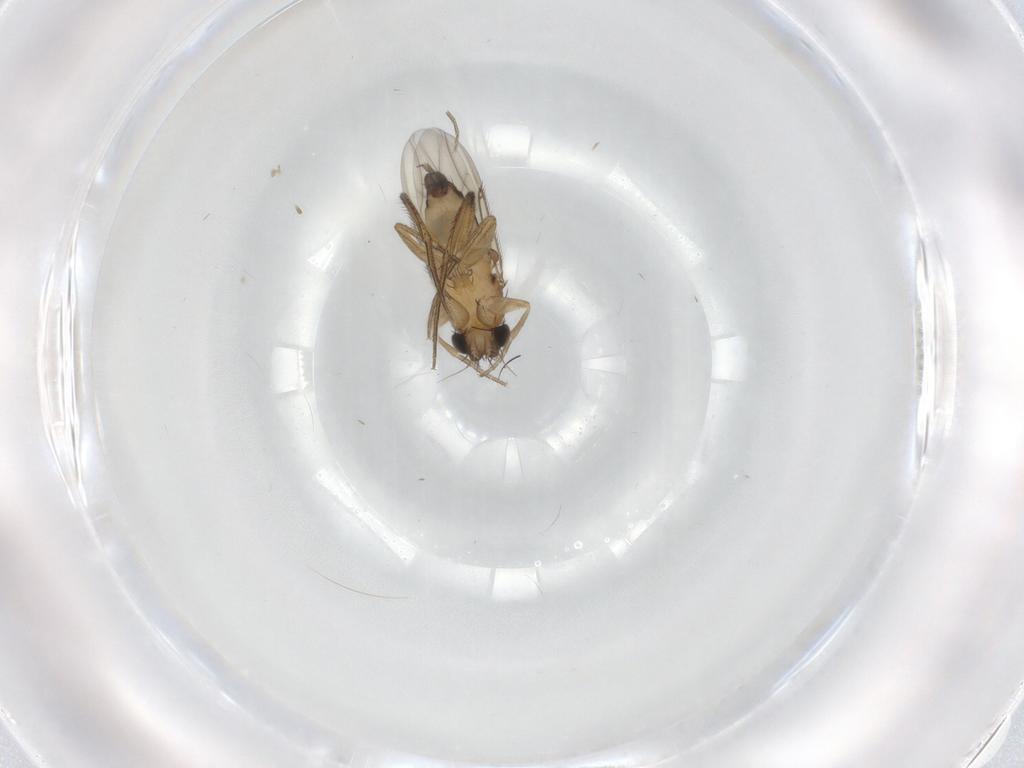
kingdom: Animalia
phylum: Arthropoda
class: Insecta
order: Diptera
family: Phoridae
